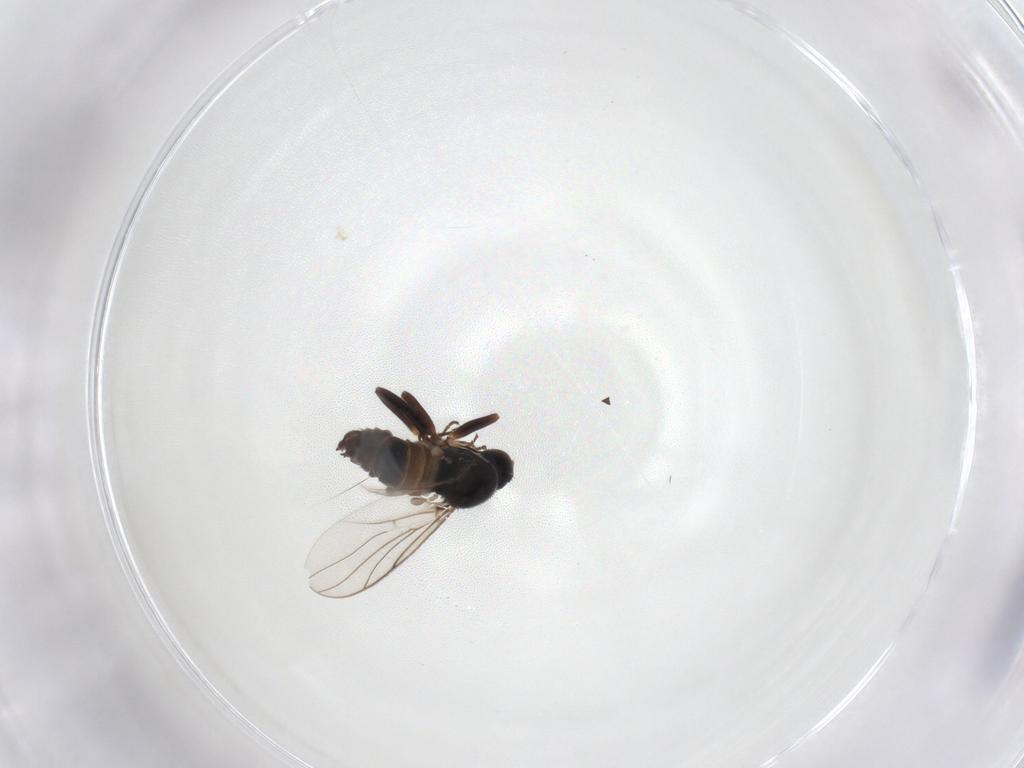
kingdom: Animalia
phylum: Arthropoda
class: Insecta
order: Diptera
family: Hybotidae
